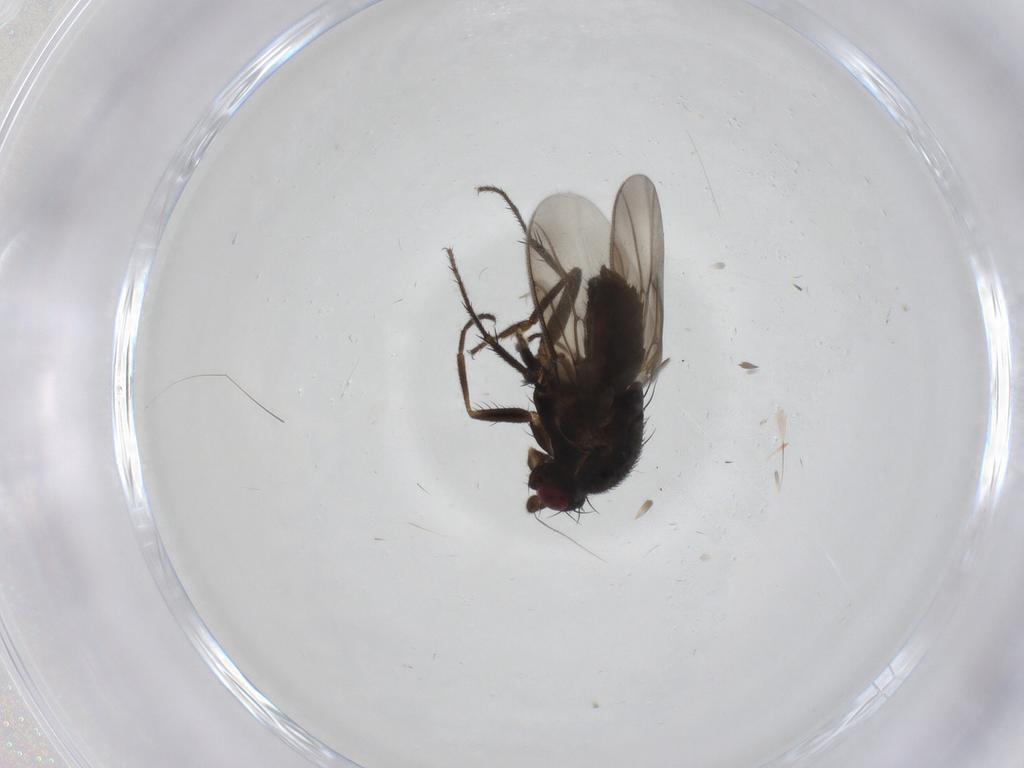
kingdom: Animalia
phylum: Arthropoda
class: Insecta
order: Diptera
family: Sphaeroceridae
